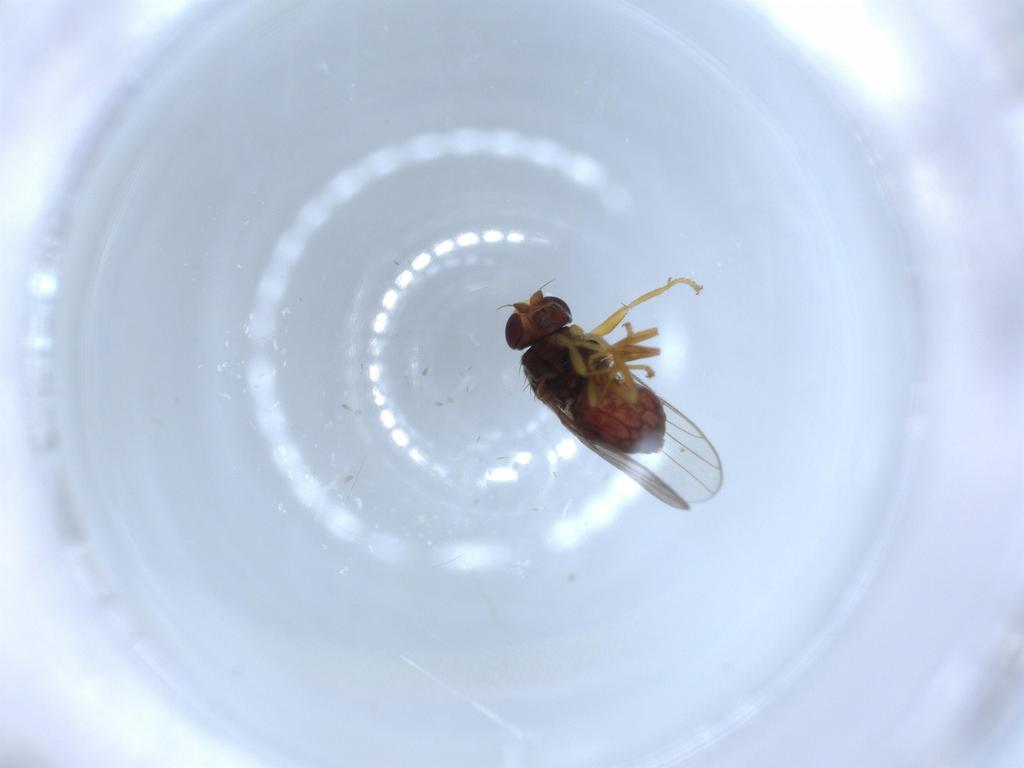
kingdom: Animalia
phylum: Arthropoda
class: Insecta
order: Diptera
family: Chloropidae
